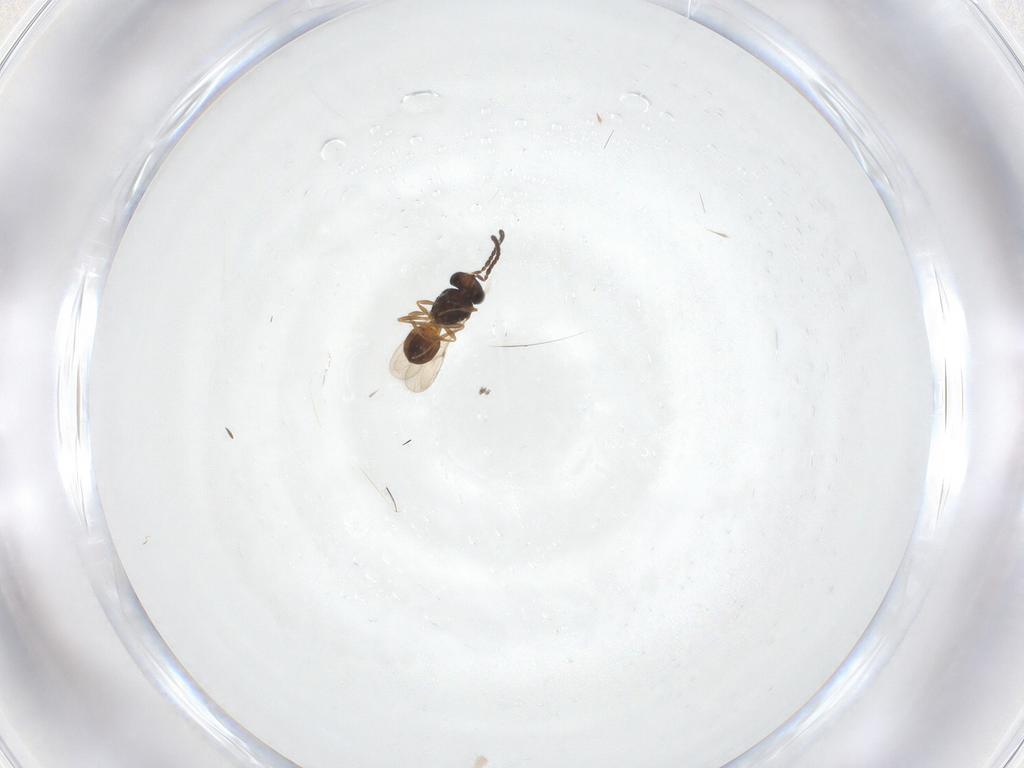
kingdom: Animalia
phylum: Arthropoda
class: Insecta
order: Hymenoptera
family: Scelionidae
